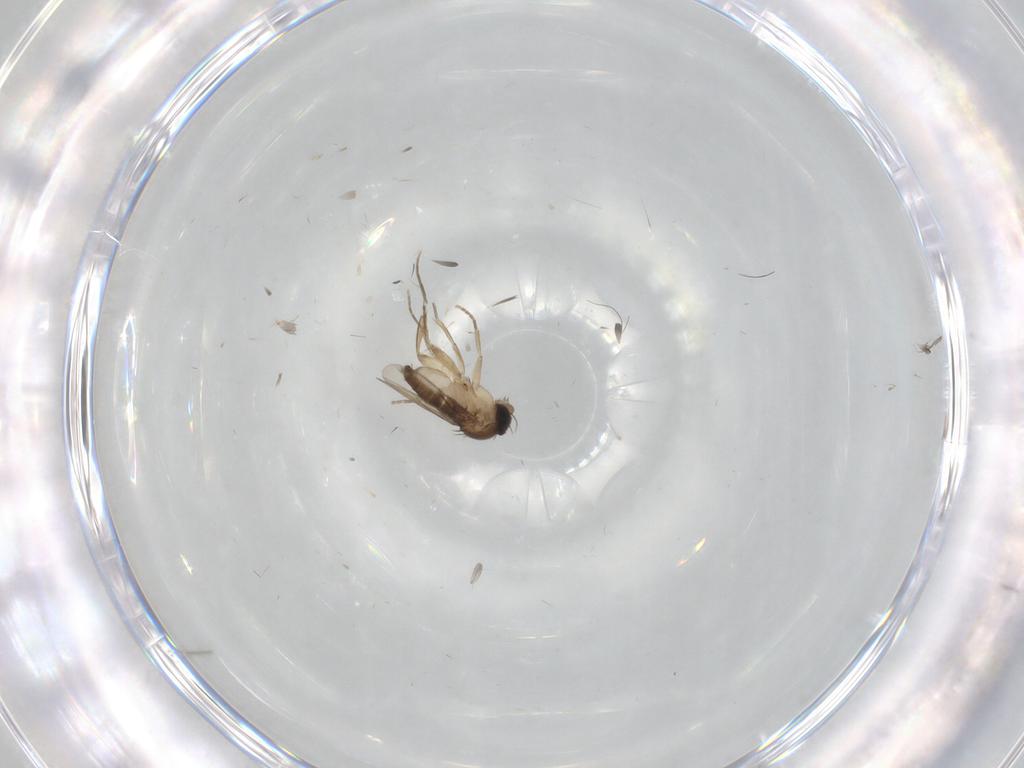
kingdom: Animalia
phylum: Arthropoda
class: Insecta
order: Diptera
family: Phoridae
